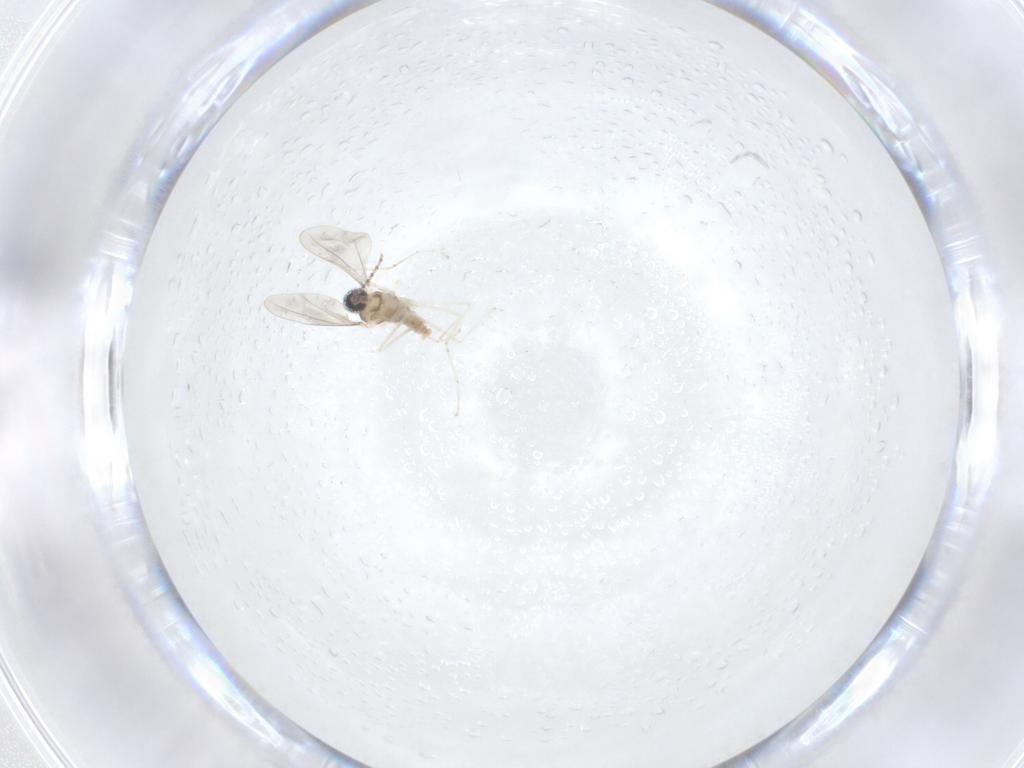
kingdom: Animalia
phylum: Arthropoda
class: Insecta
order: Diptera
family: Cecidomyiidae
